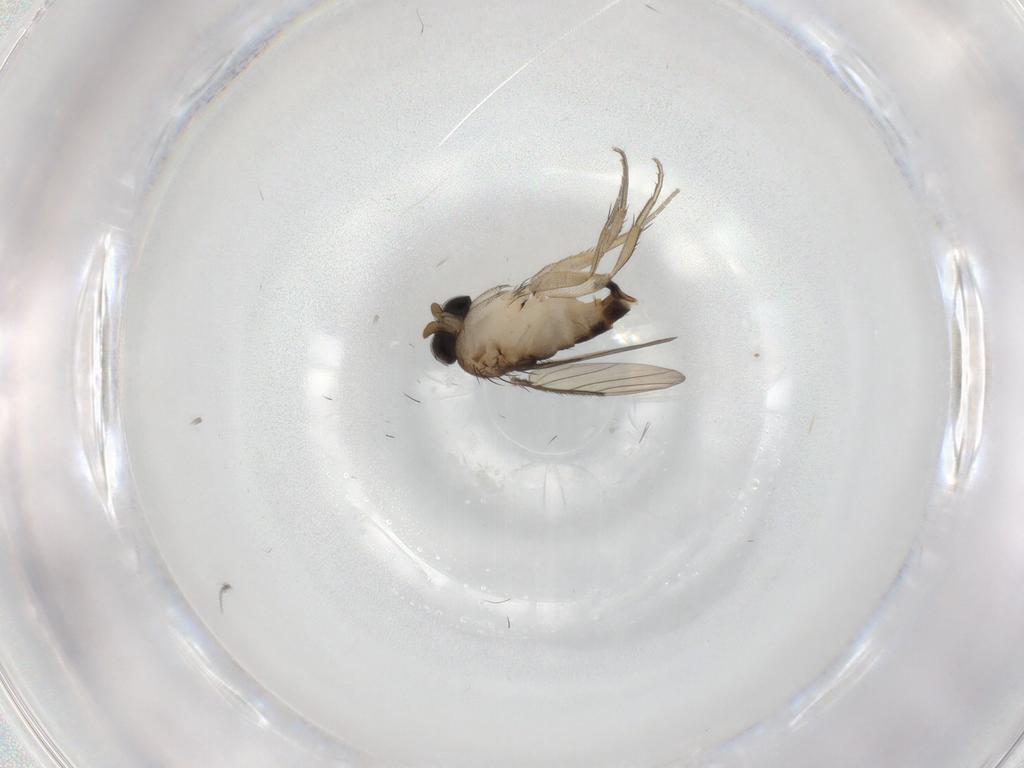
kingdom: Animalia
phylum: Arthropoda
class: Insecta
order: Diptera
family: Phoridae
